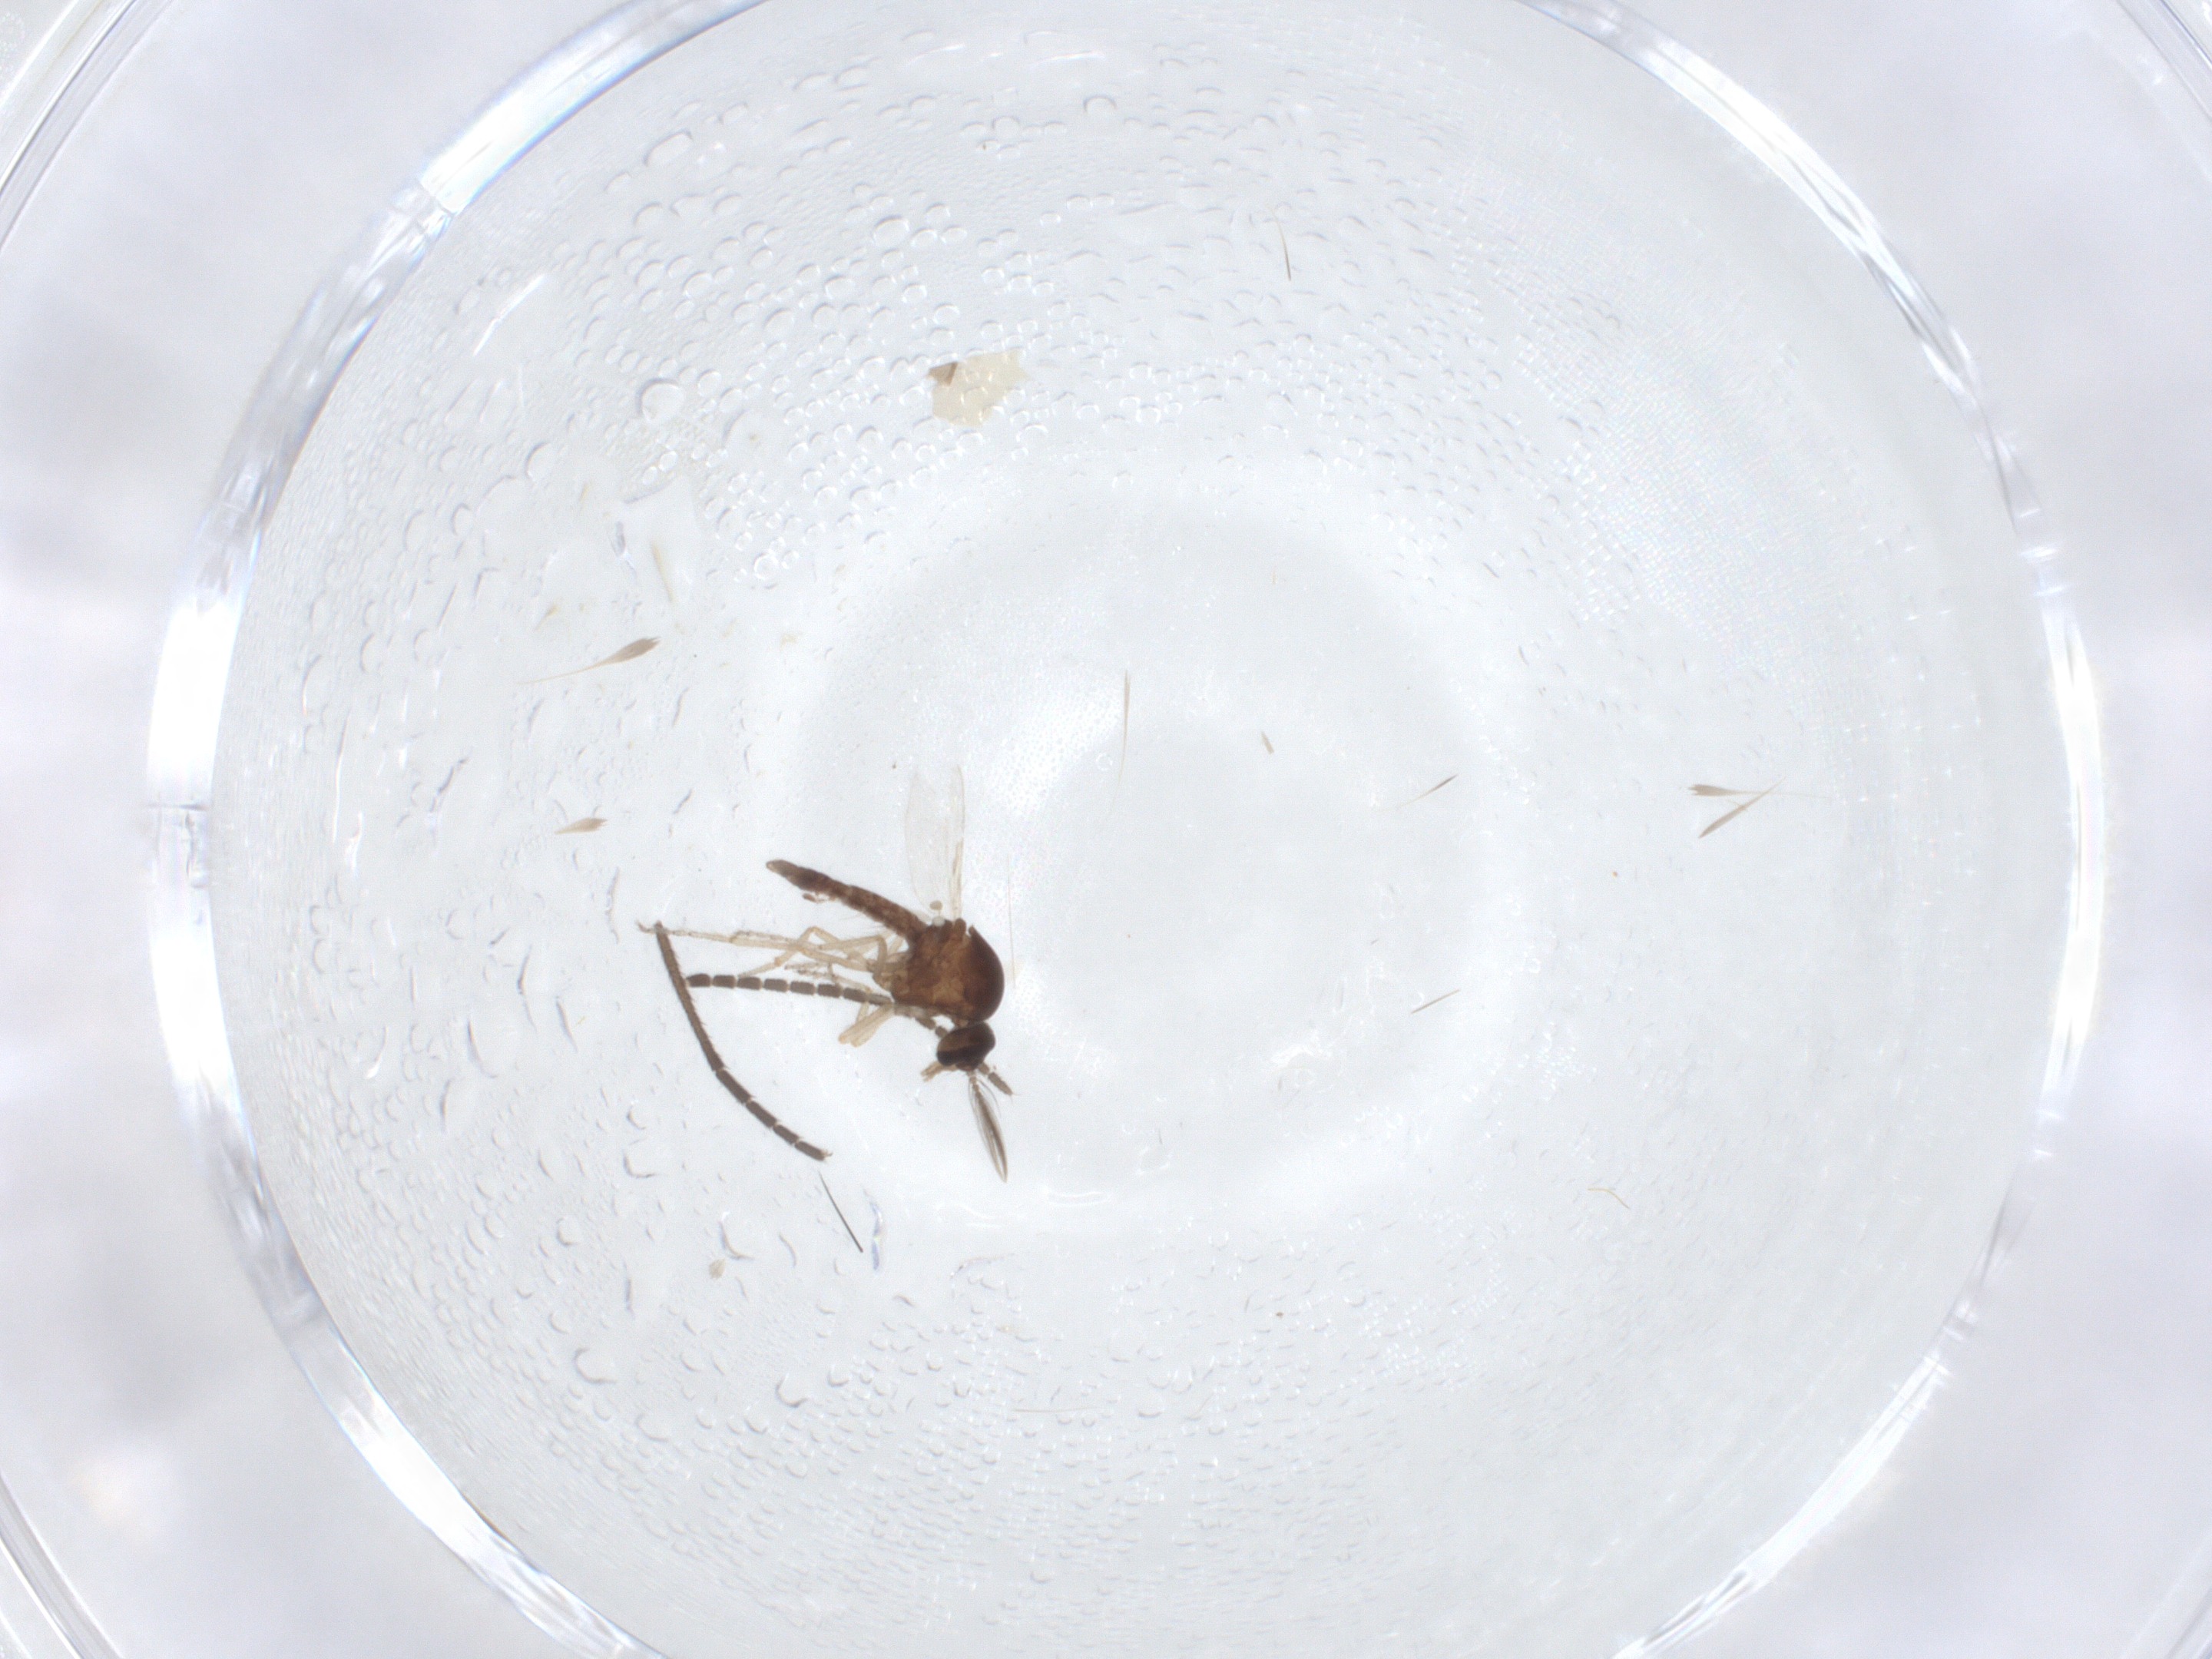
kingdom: Animalia
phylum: Arthropoda
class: Insecta
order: Diptera
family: Ceratopogonidae
